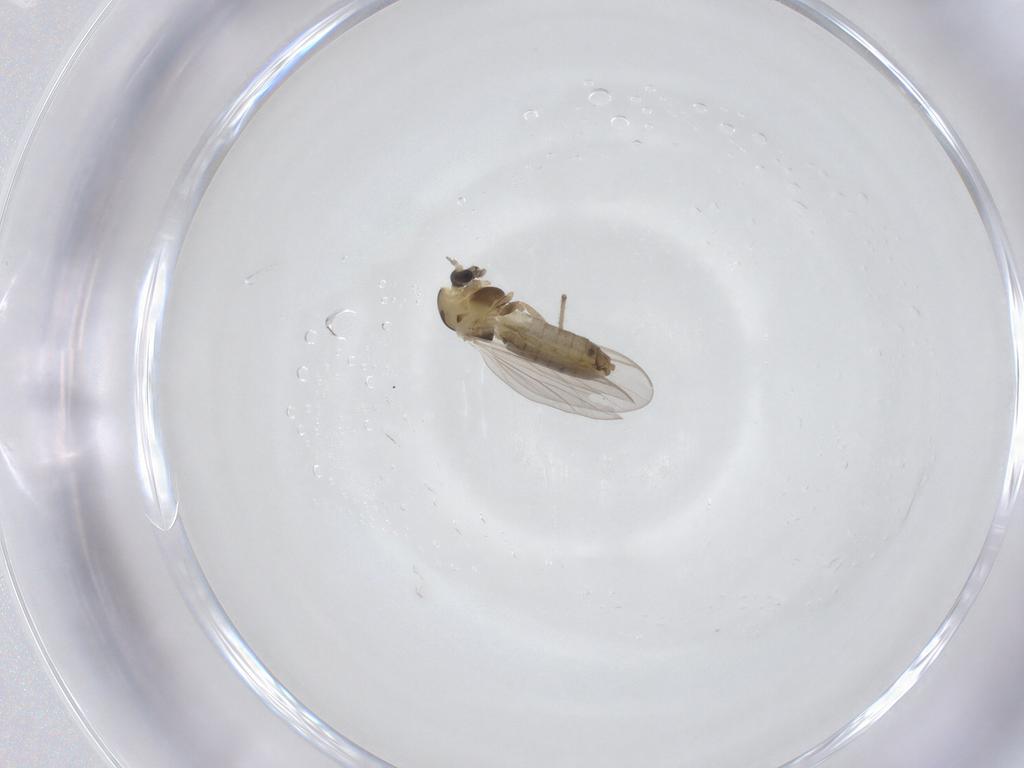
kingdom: Animalia
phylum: Arthropoda
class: Insecta
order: Diptera
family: Chironomidae
